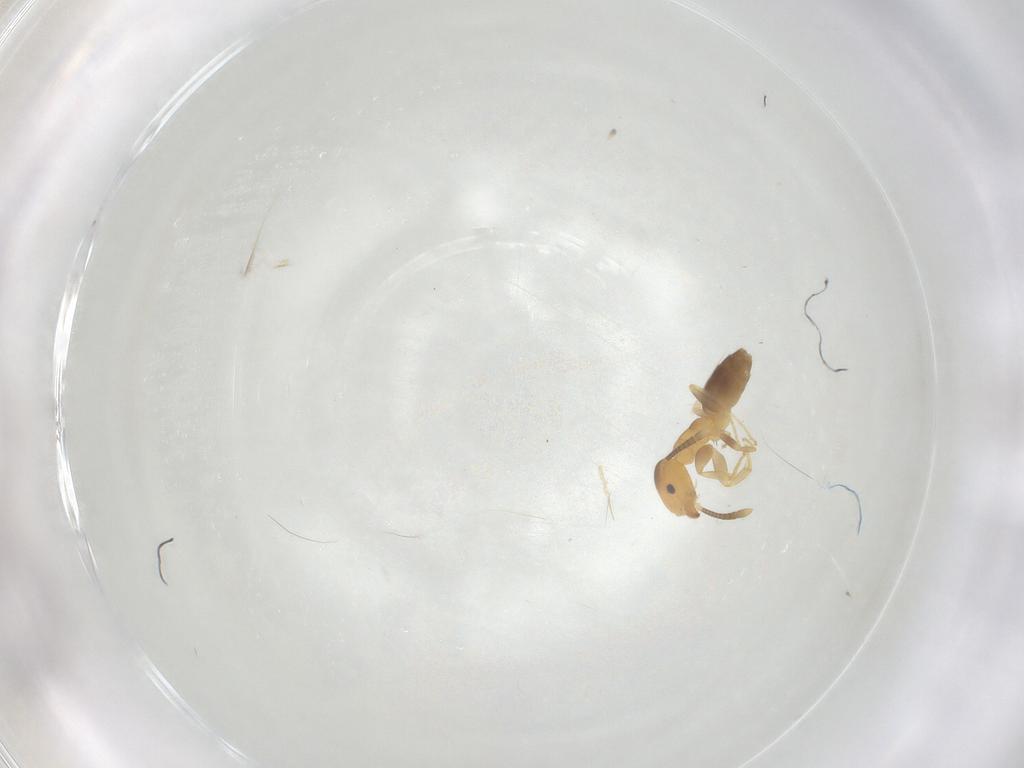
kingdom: Animalia
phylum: Arthropoda
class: Insecta
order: Hymenoptera
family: Formicidae
